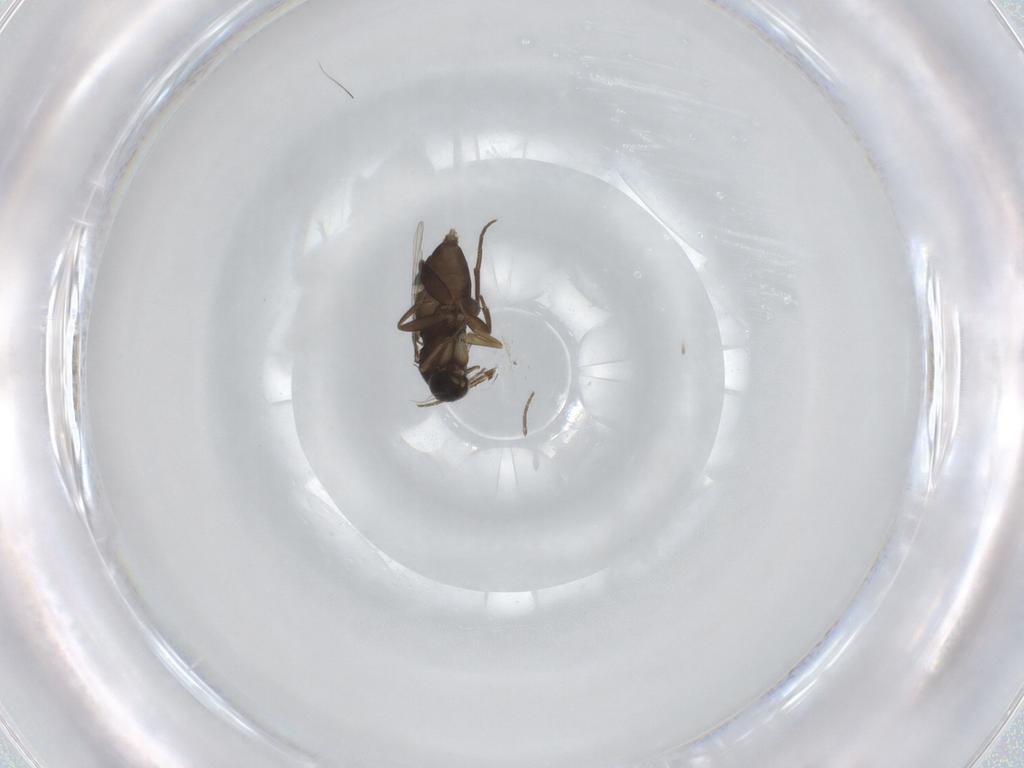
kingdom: Animalia
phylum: Arthropoda
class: Insecta
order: Diptera
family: Phoridae
